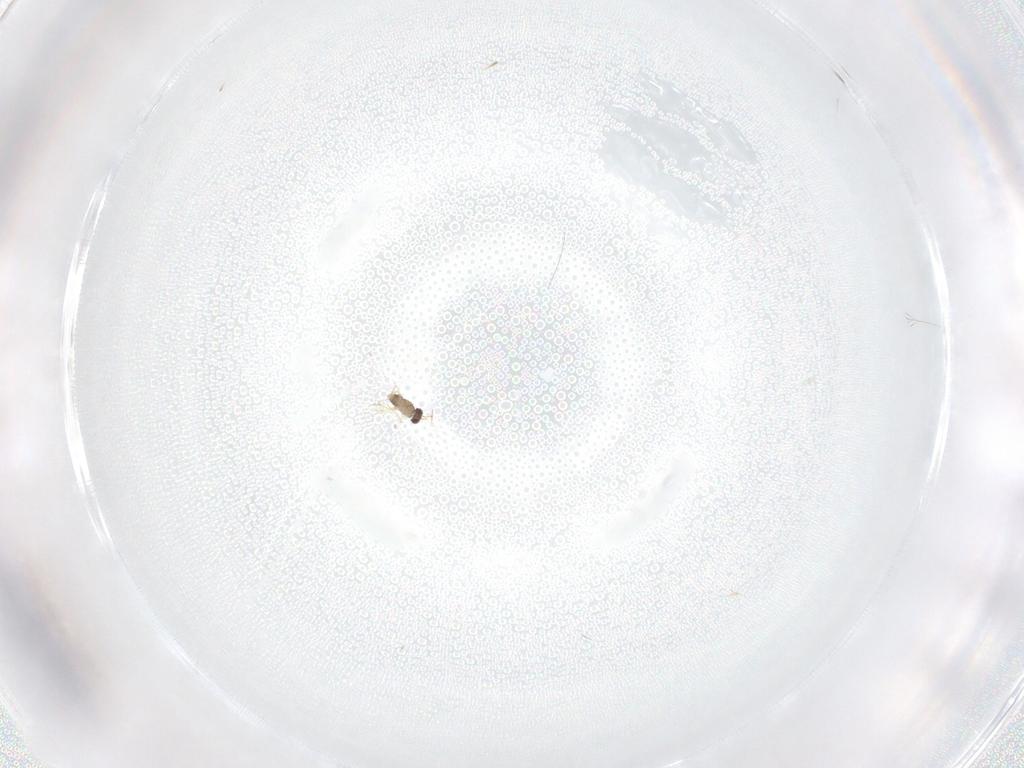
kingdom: Animalia
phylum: Arthropoda
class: Insecta
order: Hymenoptera
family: Mymaridae
